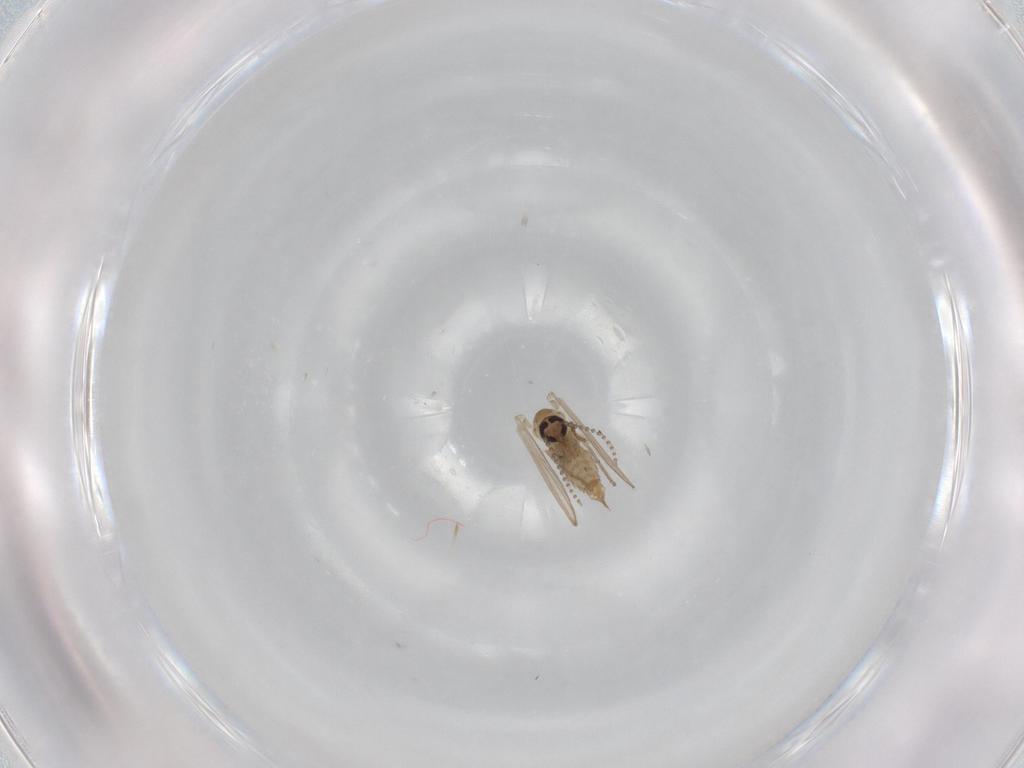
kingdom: Animalia
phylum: Arthropoda
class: Insecta
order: Diptera
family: Psychodidae
